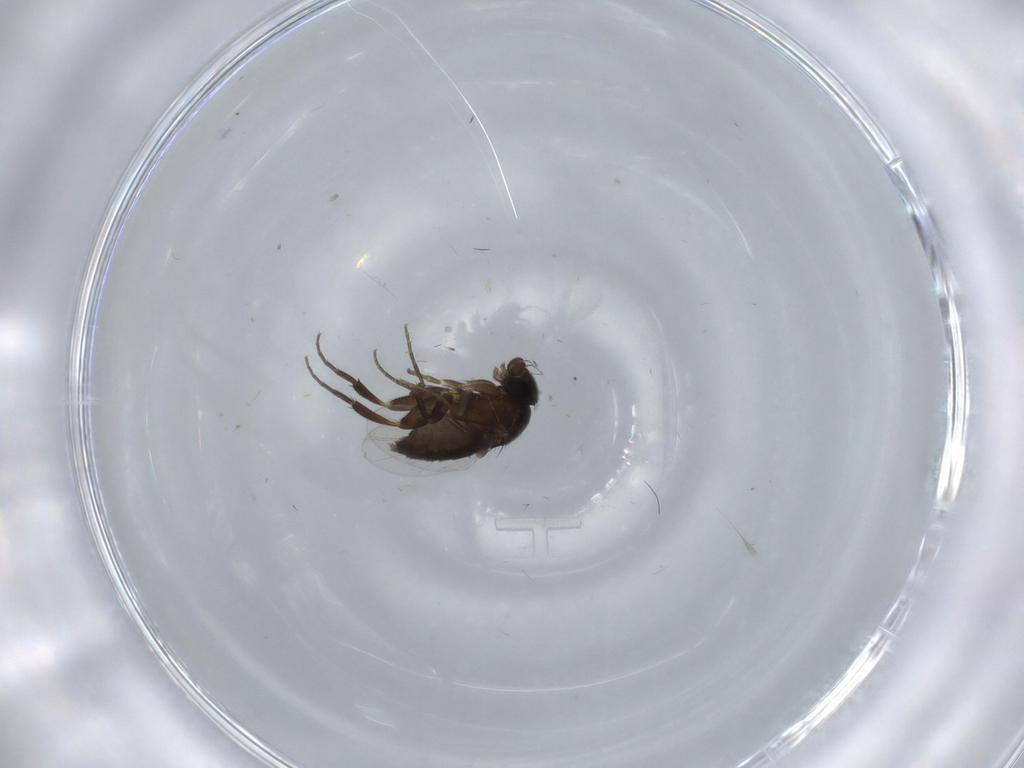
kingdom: Animalia
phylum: Arthropoda
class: Insecta
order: Diptera
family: Phoridae
